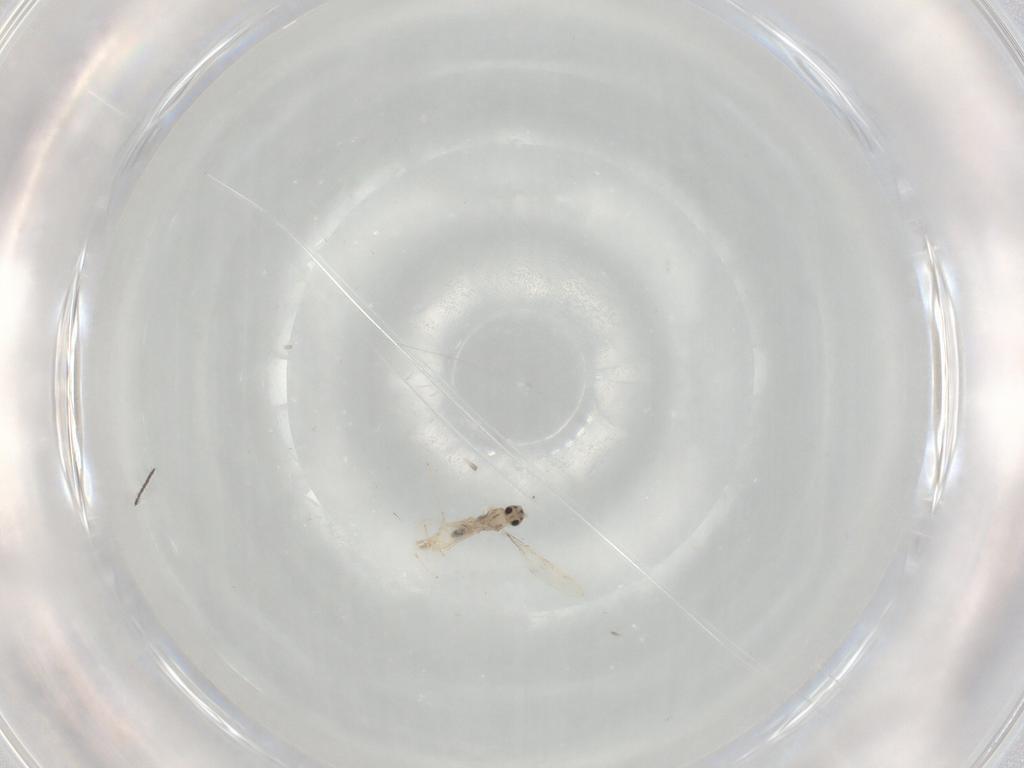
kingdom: Animalia
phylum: Arthropoda
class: Insecta
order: Diptera
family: Cecidomyiidae
